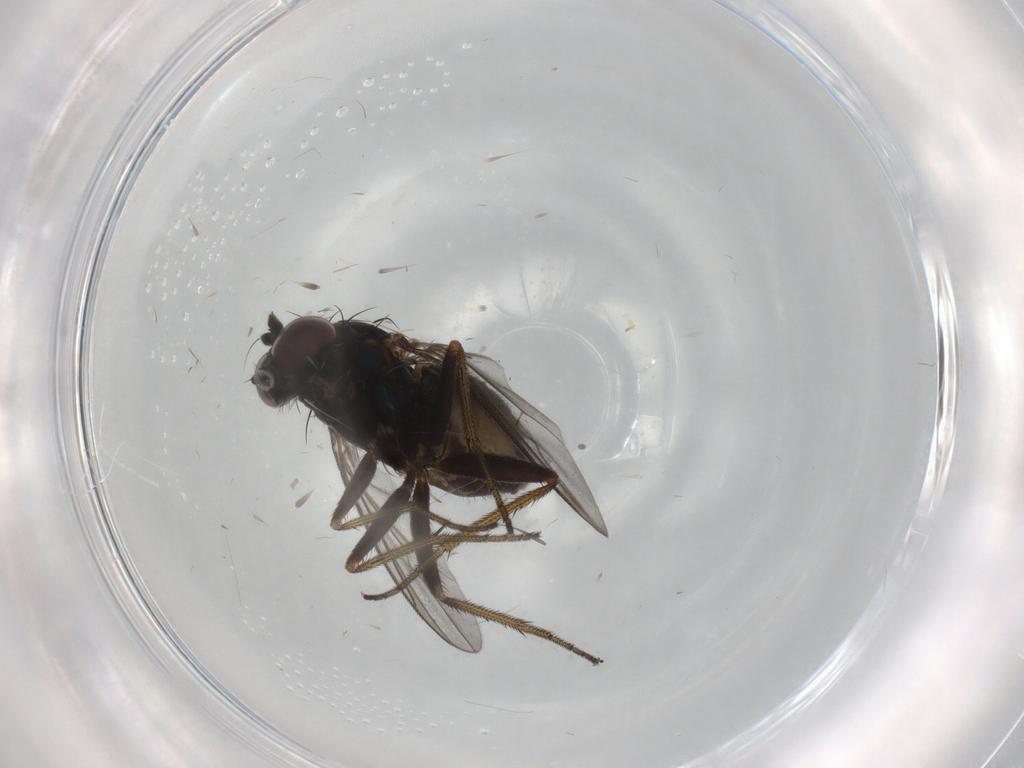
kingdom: Animalia
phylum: Arthropoda
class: Insecta
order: Diptera
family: Dolichopodidae
